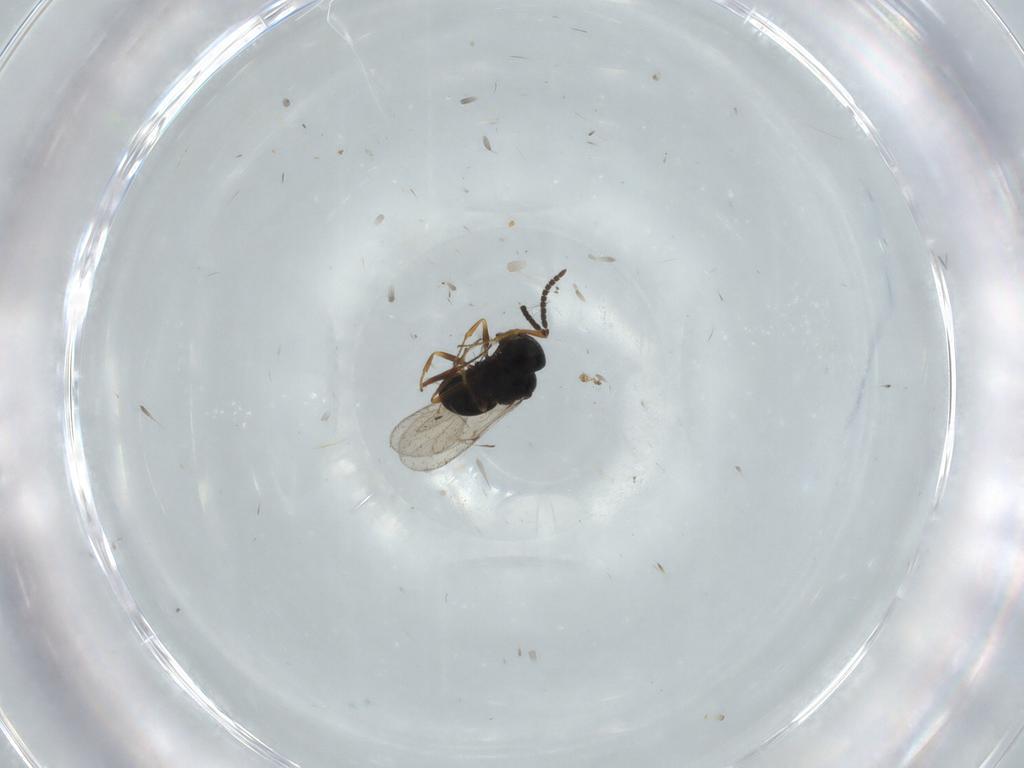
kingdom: Animalia
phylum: Arthropoda
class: Insecta
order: Hymenoptera
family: Scelionidae
